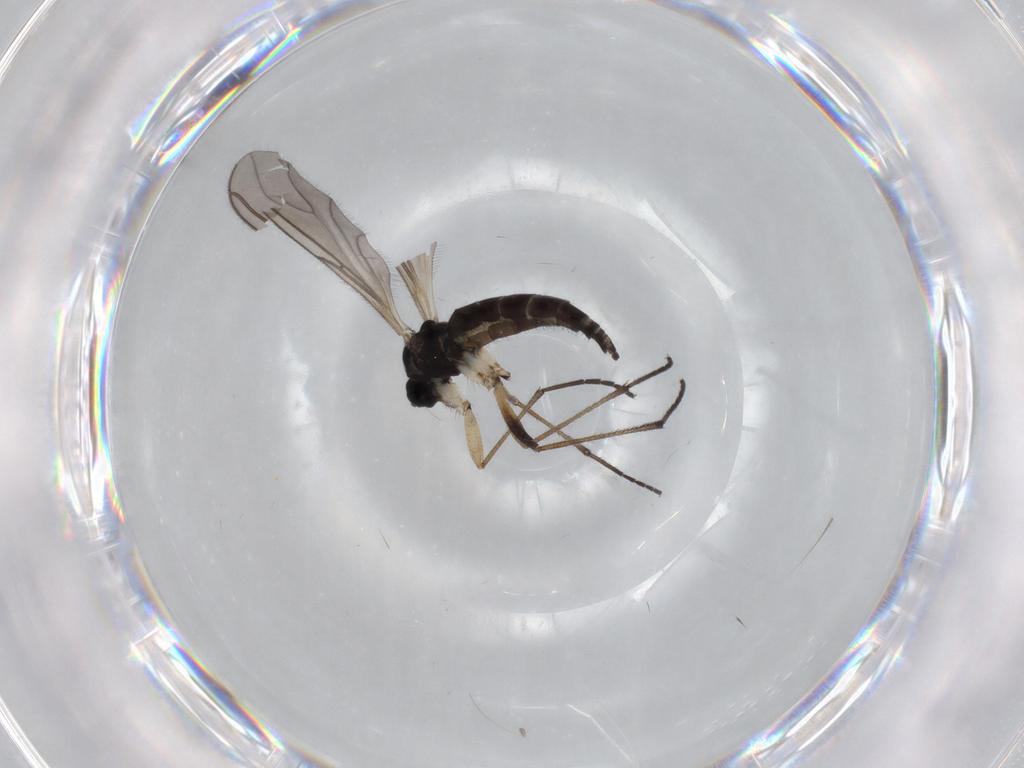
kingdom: Animalia
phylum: Arthropoda
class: Insecta
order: Diptera
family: Sciaridae
